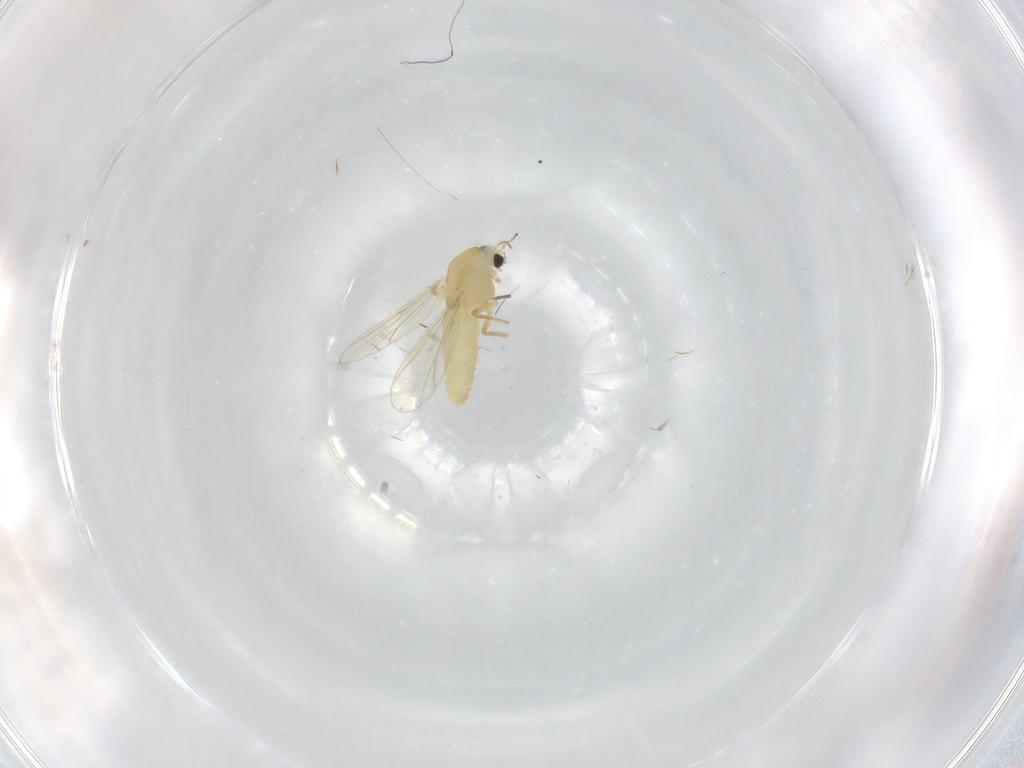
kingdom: Animalia
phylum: Arthropoda
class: Insecta
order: Diptera
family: Chironomidae
